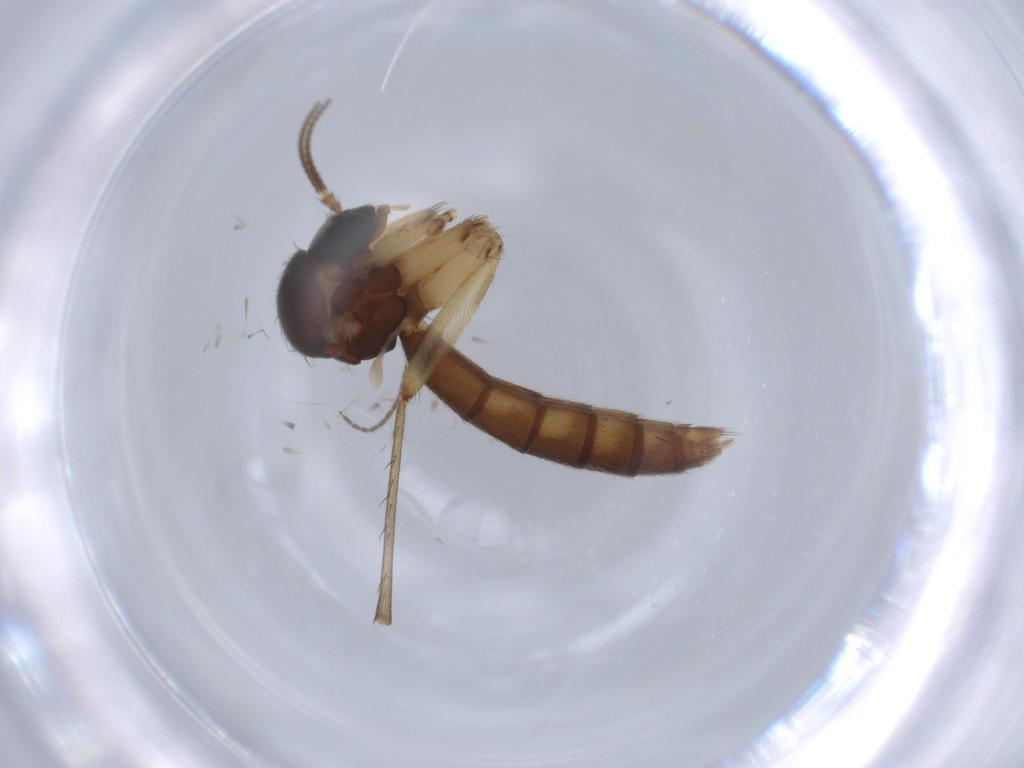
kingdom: Animalia
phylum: Arthropoda
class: Insecta
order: Diptera
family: Mycetophilidae
